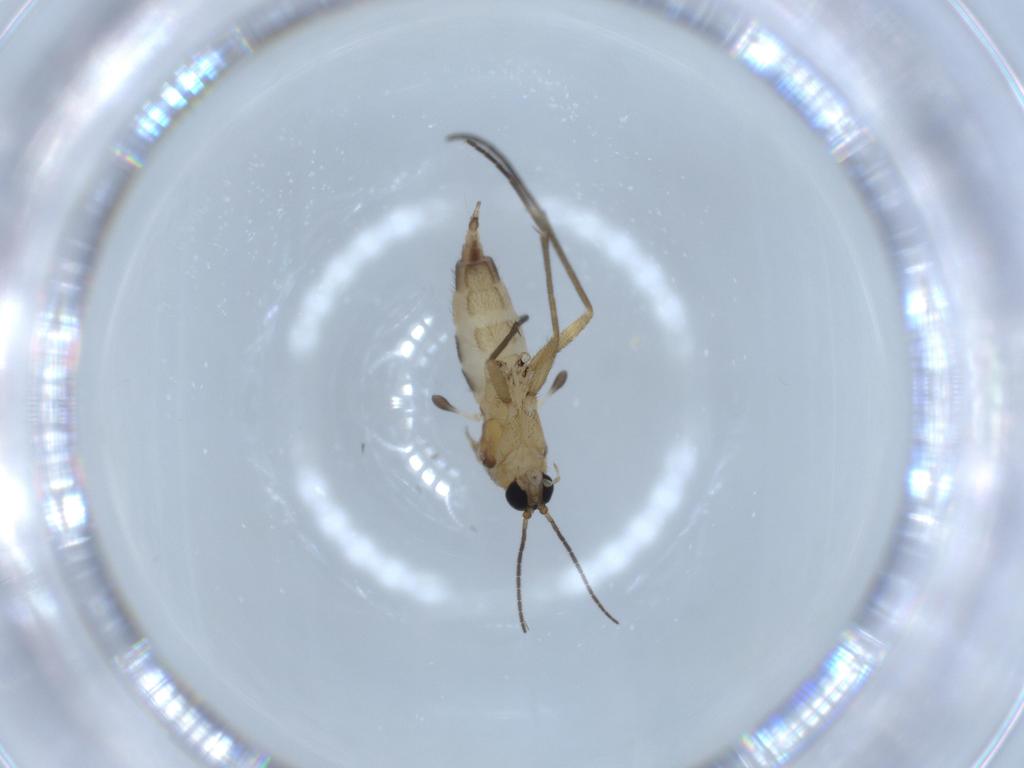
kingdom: Animalia
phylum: Arthropoda
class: Insecta
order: Diptera
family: Sciaridae
